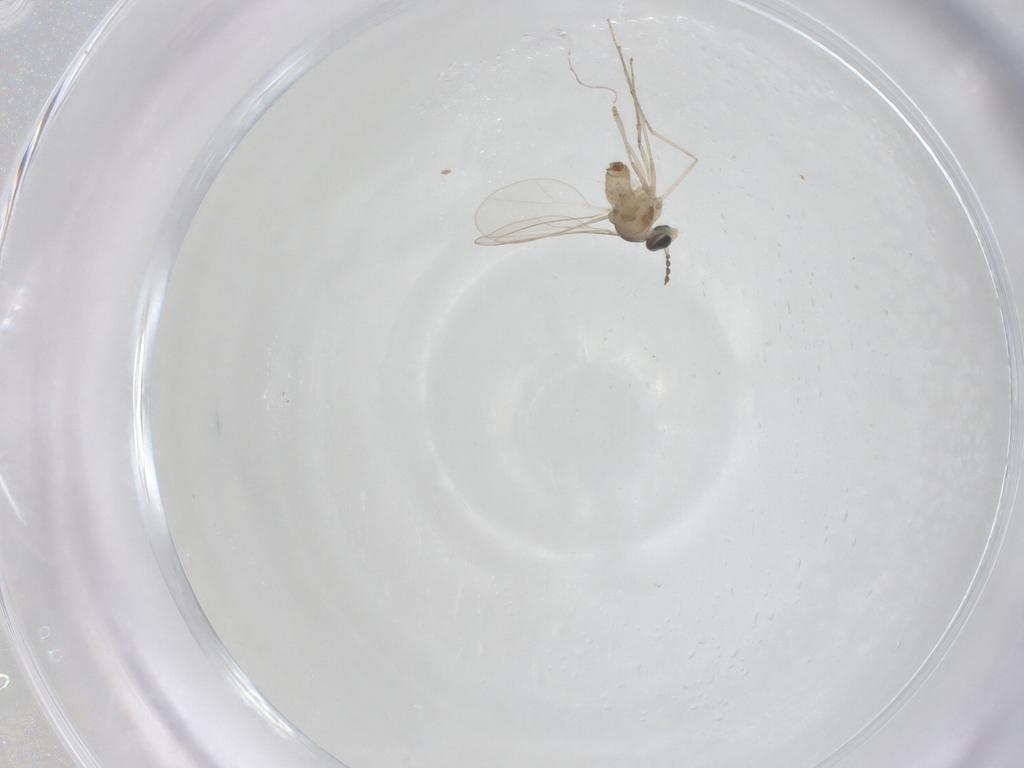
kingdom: Animalia
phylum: Arthropoda
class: Insecta
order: Diptera
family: Cecidomyiidae
